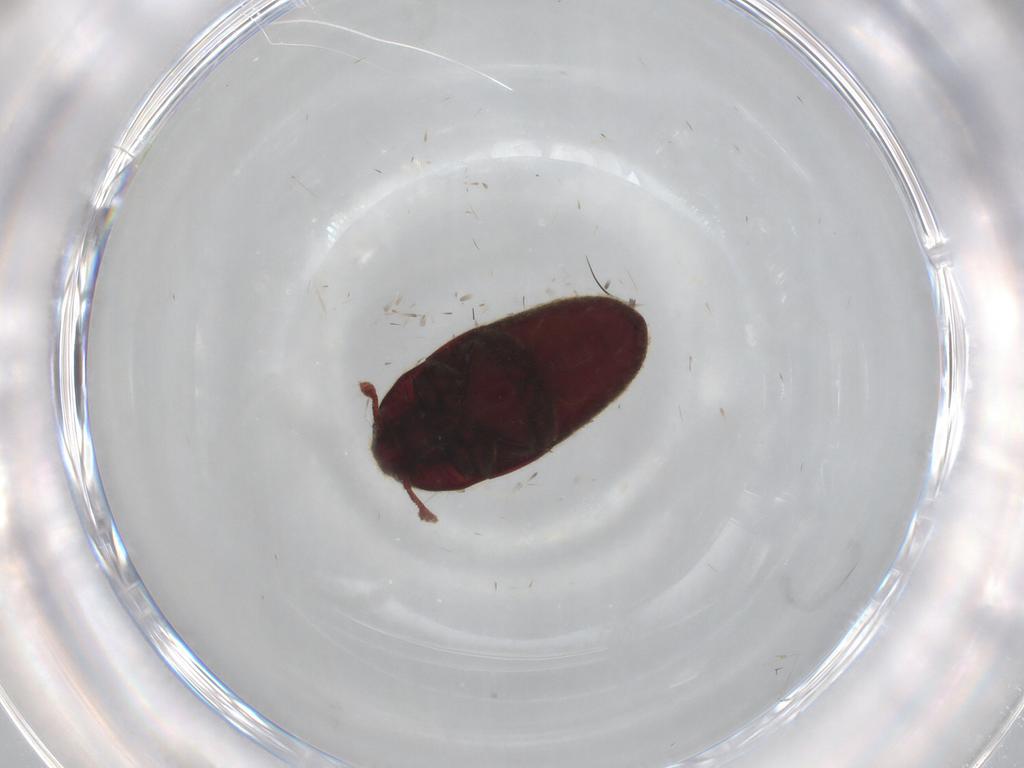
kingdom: Animalia
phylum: Arthropoda
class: Insecta
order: Coleoptera
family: Throscidae
